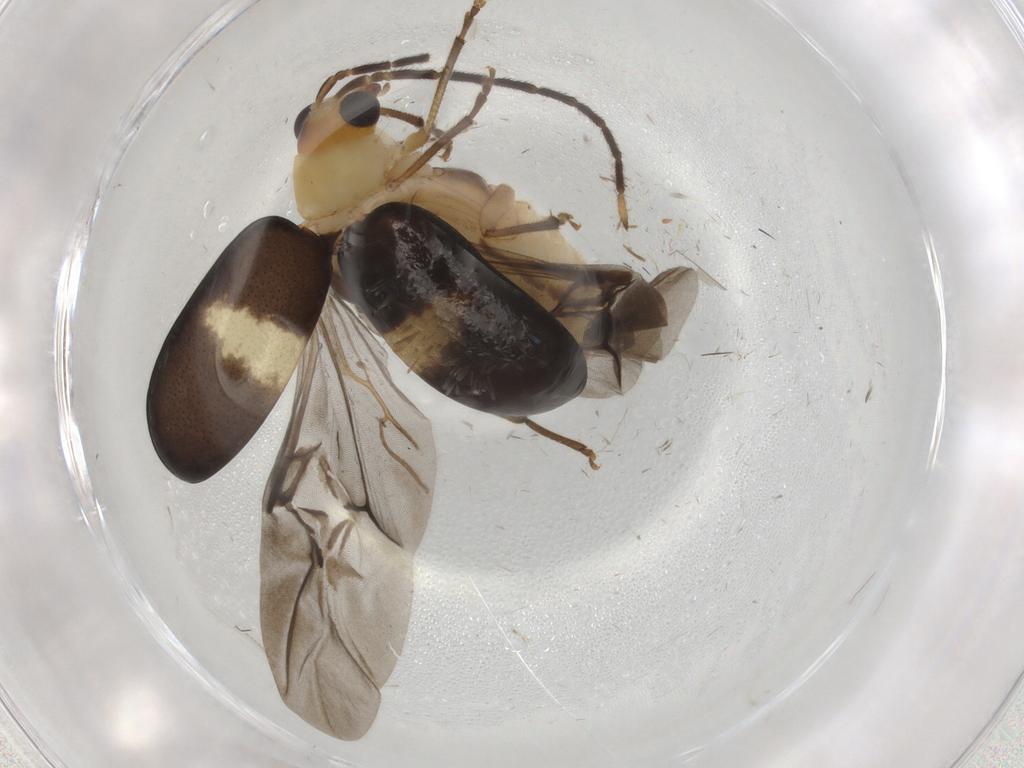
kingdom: Animalia
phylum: Arthropoda
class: Insecta
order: Coleoptera
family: Chrysomelidae
